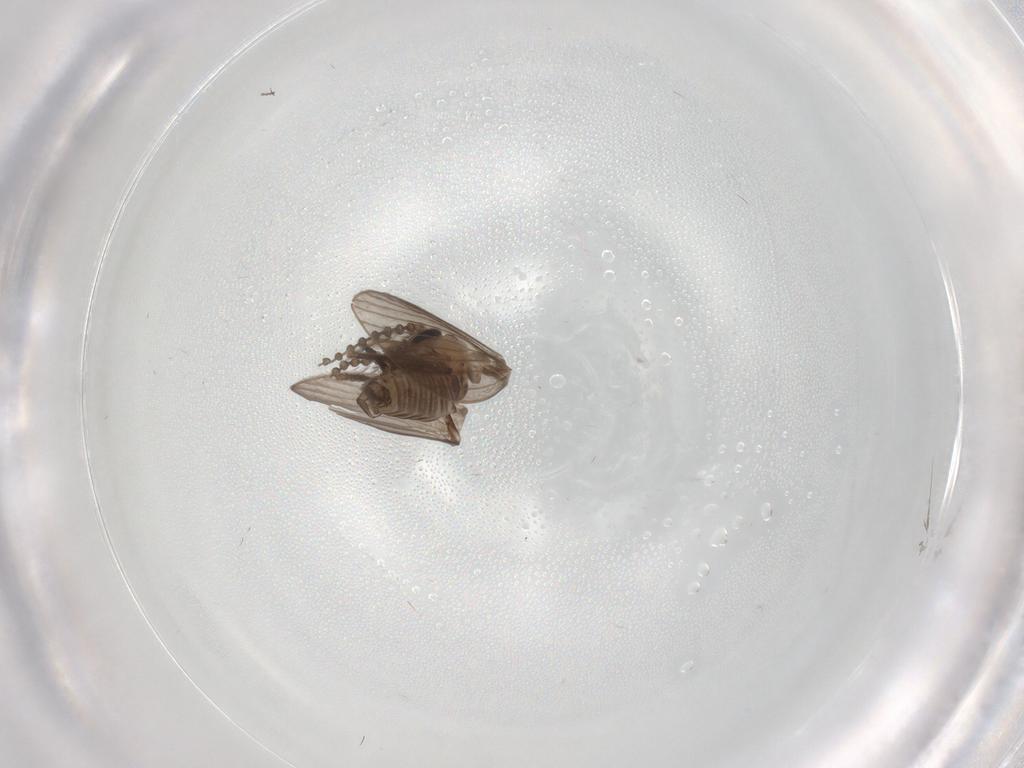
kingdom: Animalia
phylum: Arthropoda
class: Insecta
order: Diptera
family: Psychodidae
